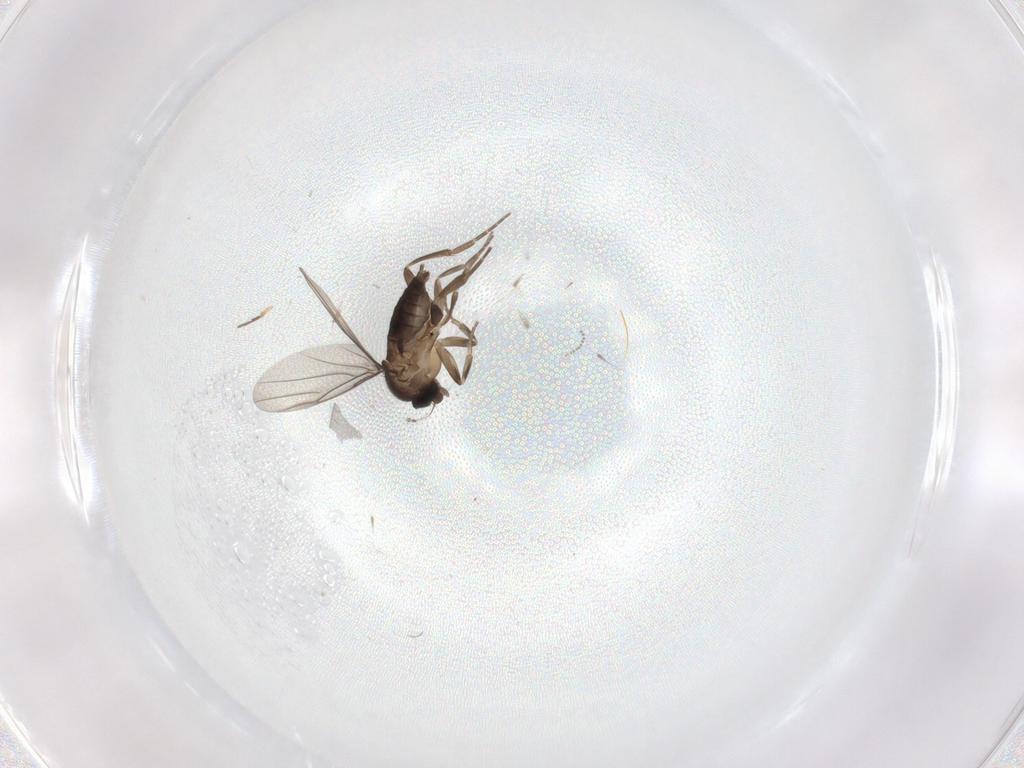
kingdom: Animalia
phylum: Arthropoda
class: Insecta
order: Diptera
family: Phoridae
